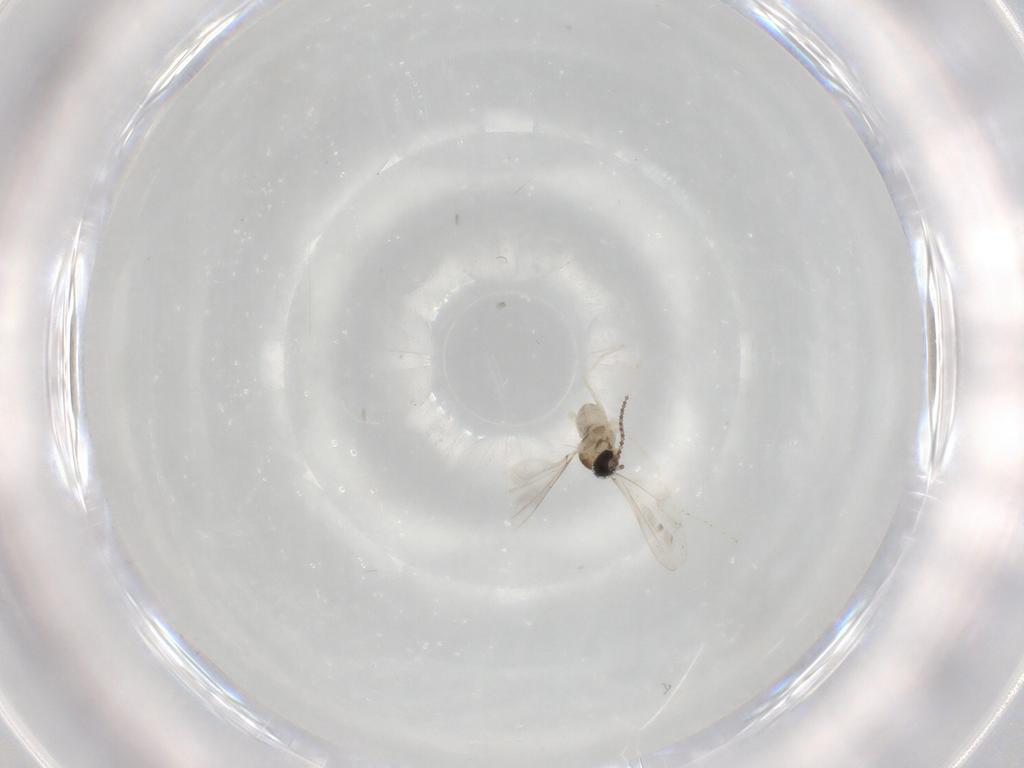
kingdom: Animalia
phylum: Arthropoda
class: Insecta
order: Diptera
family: Cecidomyiidae
